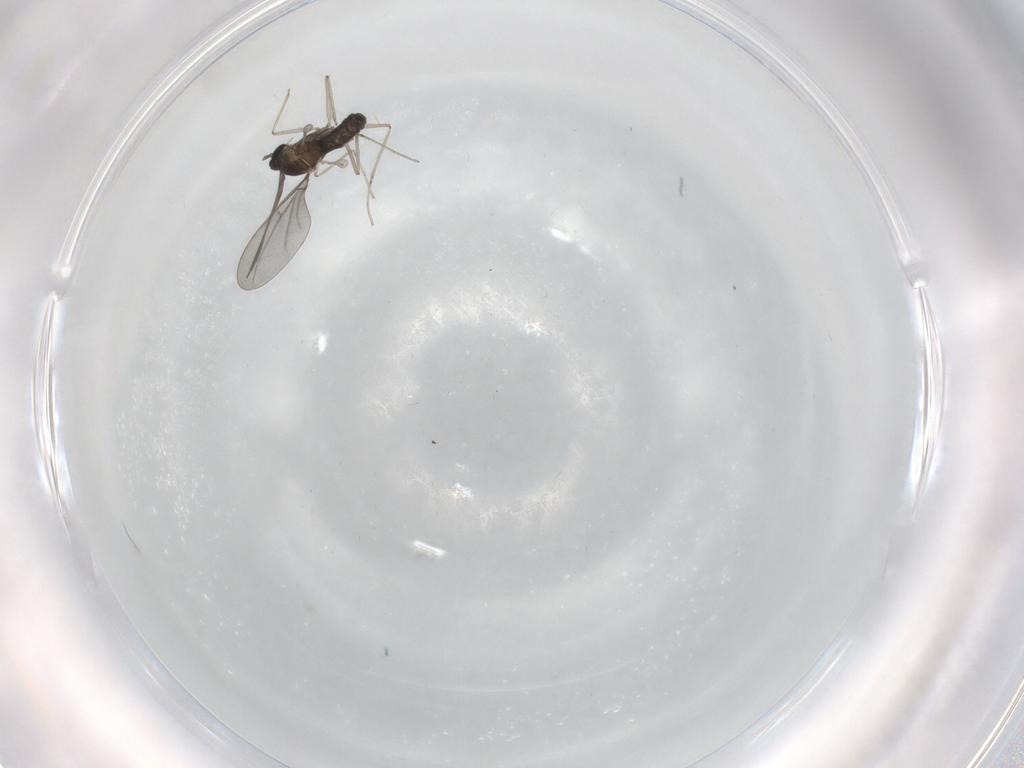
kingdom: Animalia
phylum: Arthropoda
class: Insecta
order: Diptera
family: Cecidomyiidae
